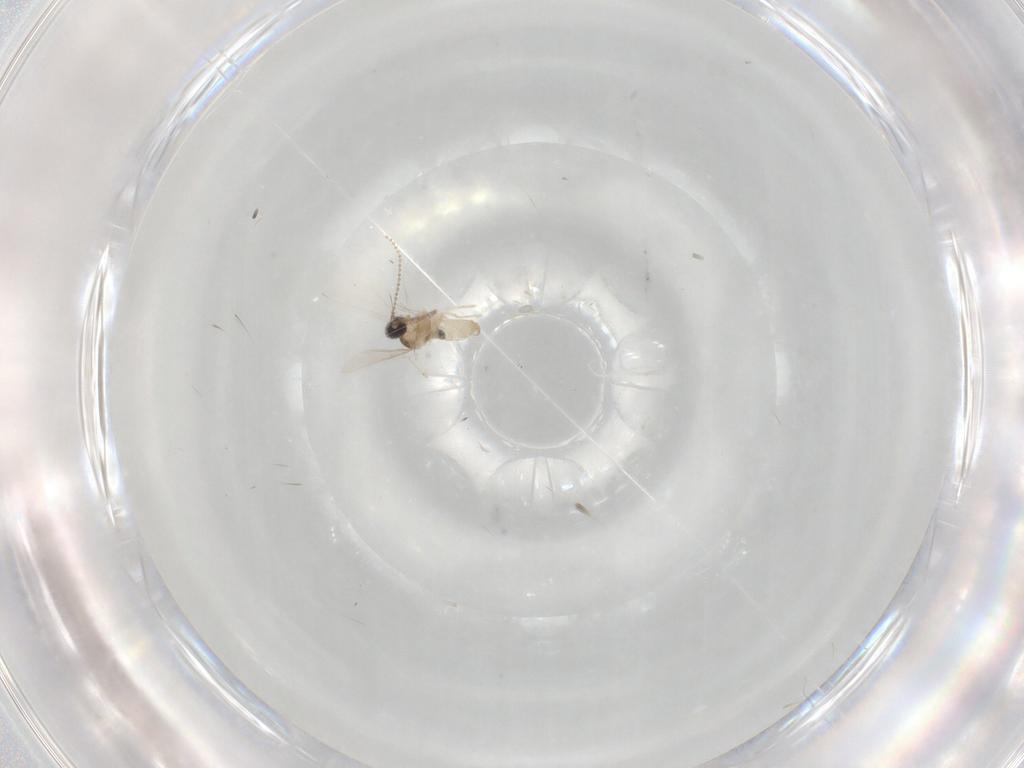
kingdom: Animalia
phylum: Arthropoda
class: Insecta
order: Diptera
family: Cecidomyiidae
